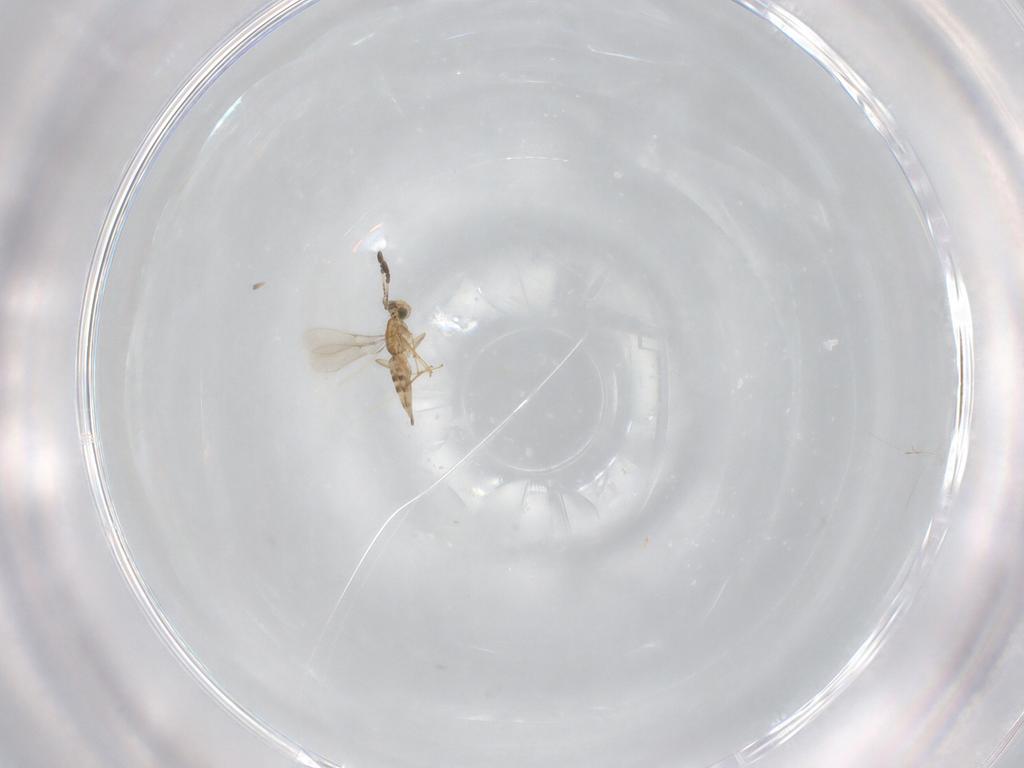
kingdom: Animalia
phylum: Arthropoda
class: Insecta
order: Hymenoptera
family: Mymaridae
